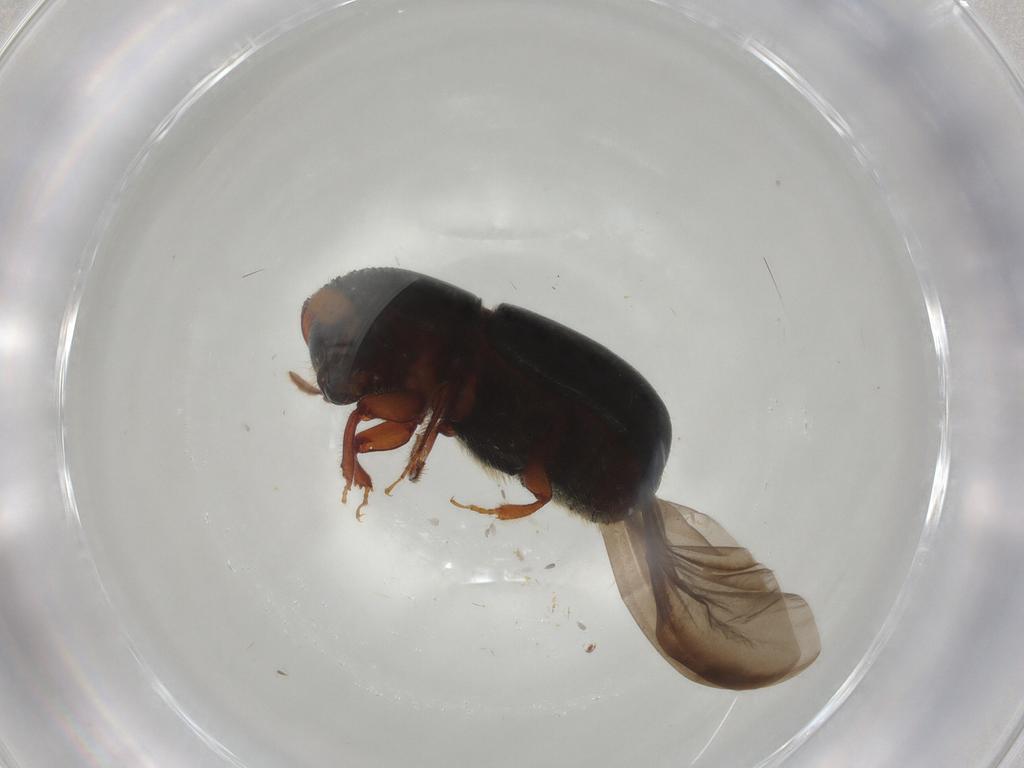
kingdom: Animalia
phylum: Arthropoda
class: Insecta
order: Coleoptera
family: Curculionidae
